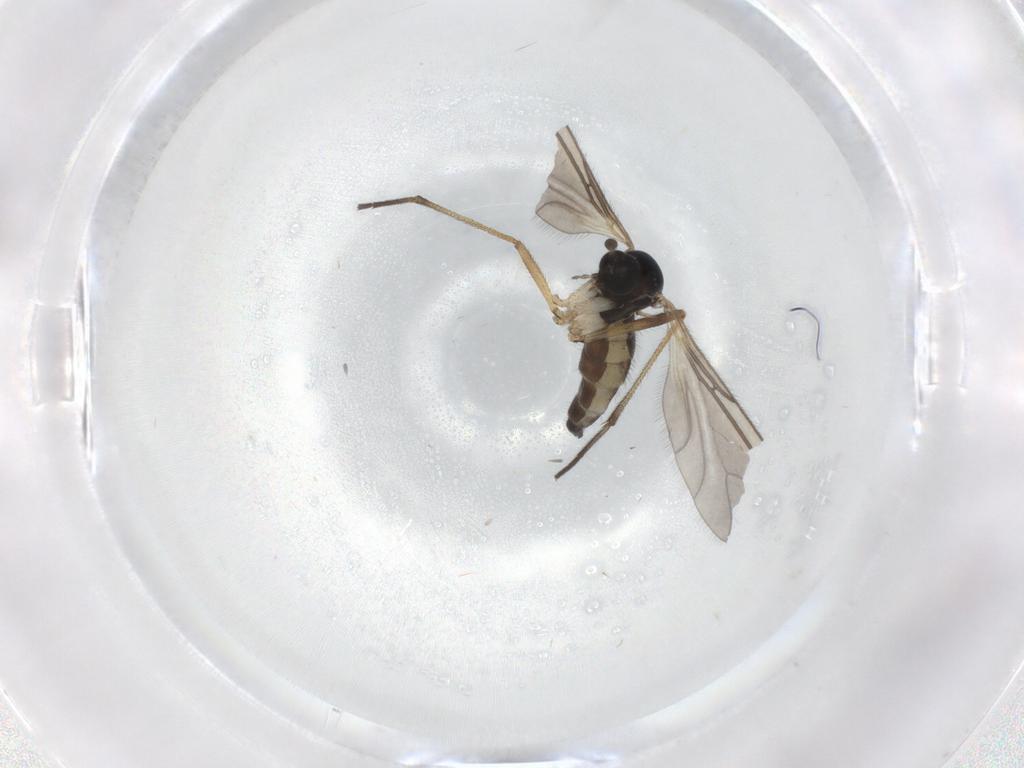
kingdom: Animalia
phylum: Arthropoda
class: Insecta
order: Diptera
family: Sciaridae
